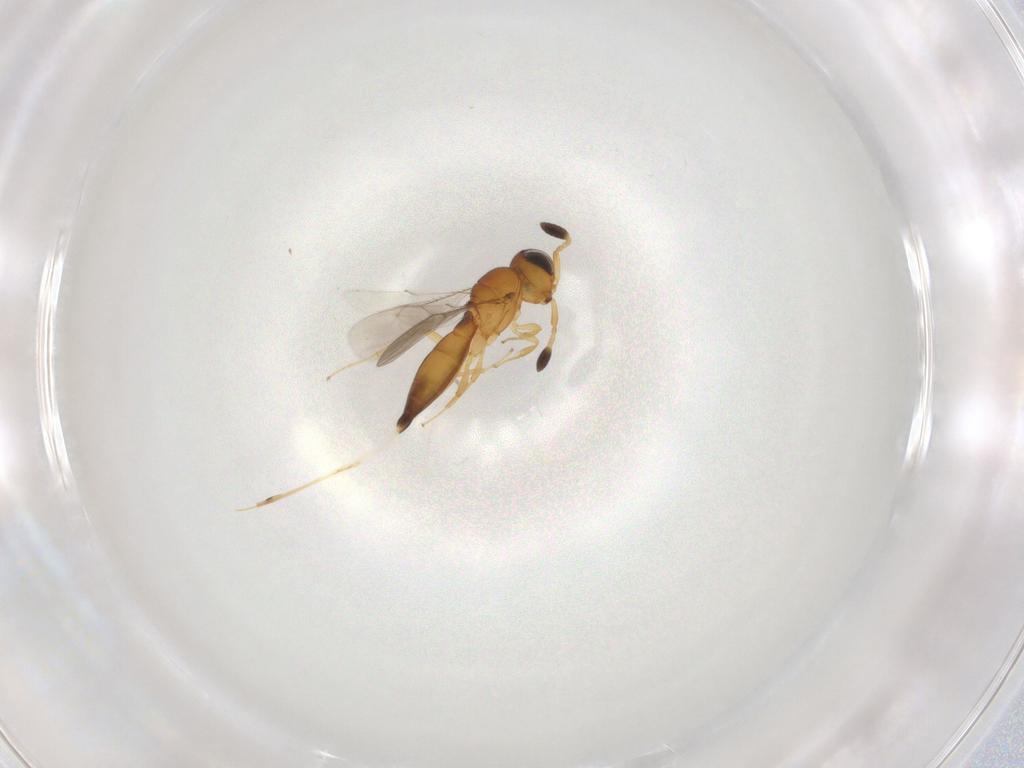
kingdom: Animalia
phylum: Arthropoda
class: Insecta
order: Hymenoptera
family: Scelionidae
